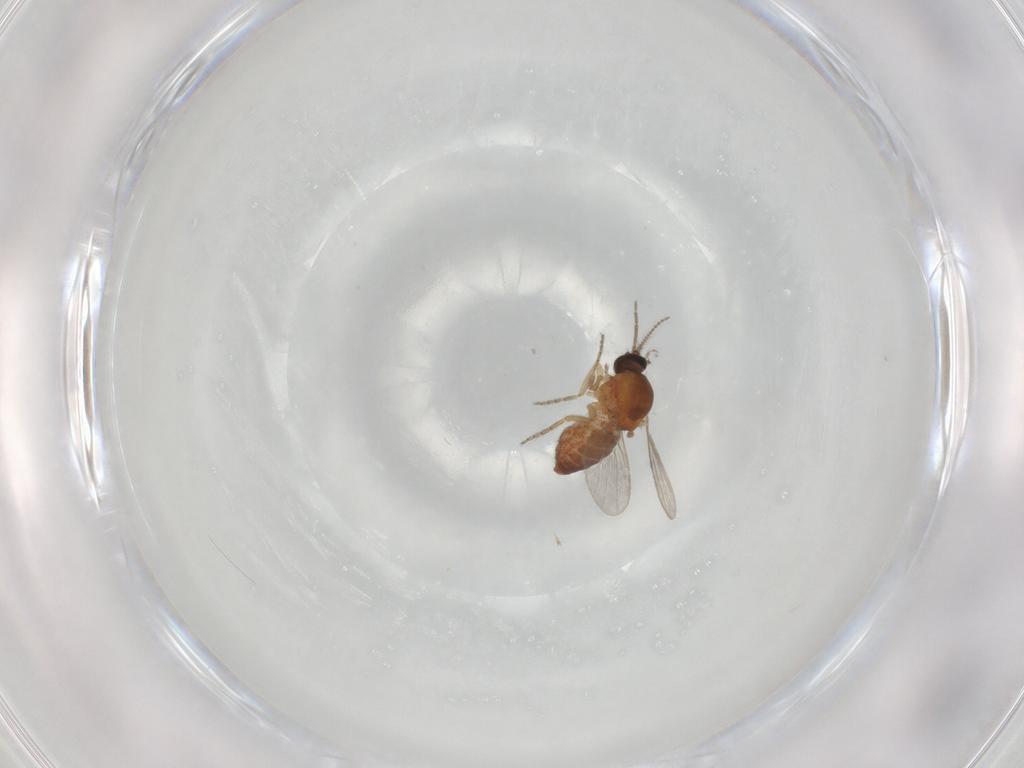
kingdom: Animalia
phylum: Arthropoda
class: Insecta
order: Diptera
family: Ceratopogonidae
